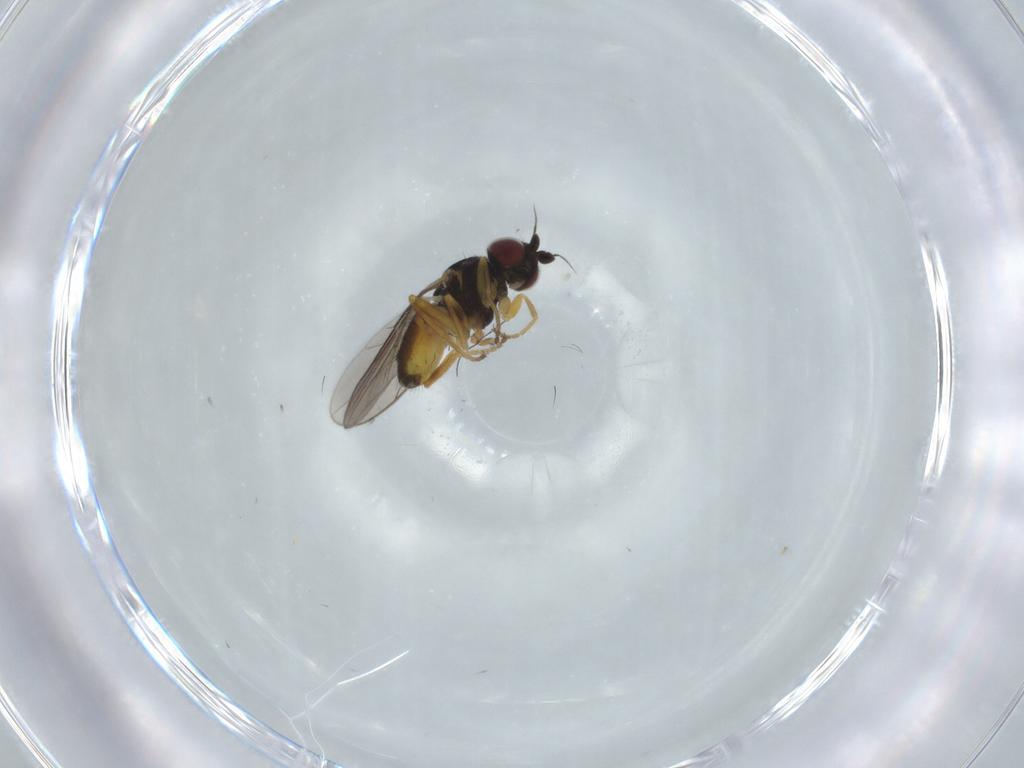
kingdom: Animalia
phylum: Arthropoda
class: Insecta
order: Diptera
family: Chloropidae
